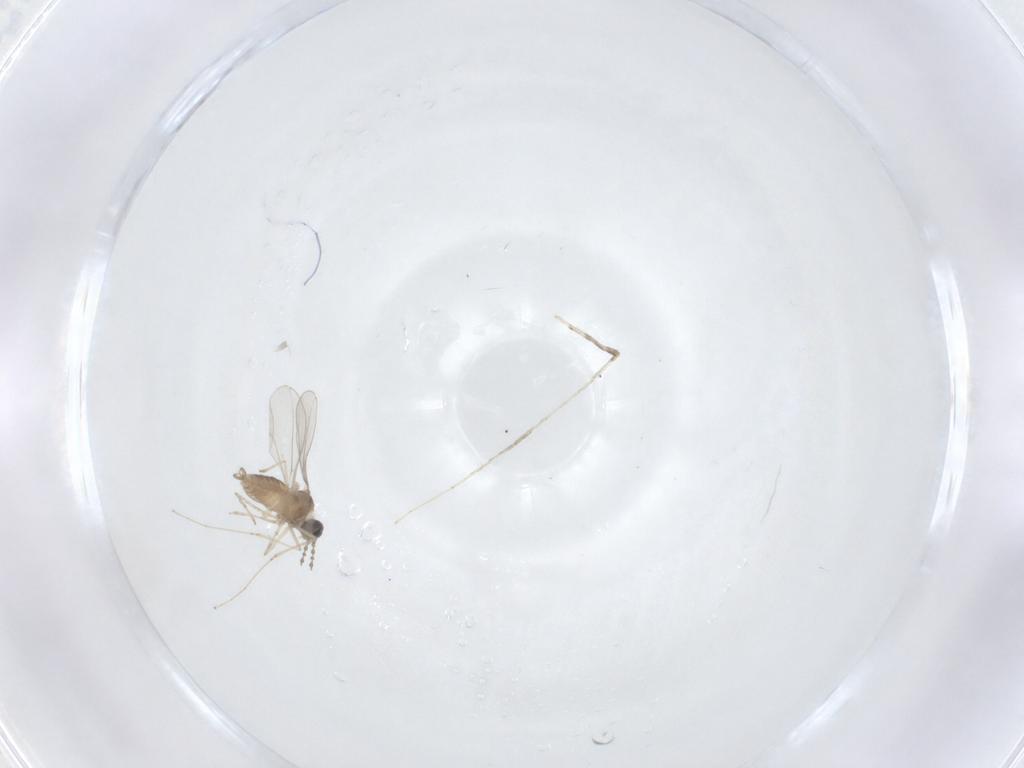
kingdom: Animalia
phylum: Arthropoda
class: Insecta
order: Diptera
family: Cecidomyiidae
